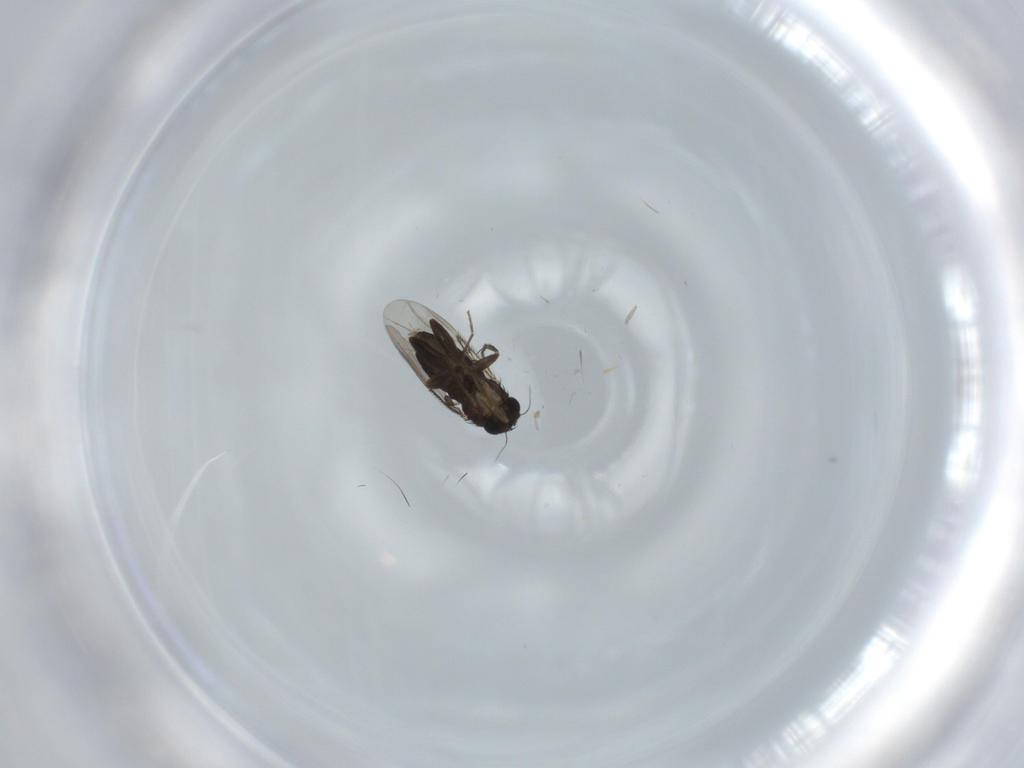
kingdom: Animalia
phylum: Arthropoda
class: Insecta
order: Diptera
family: Phoridae
